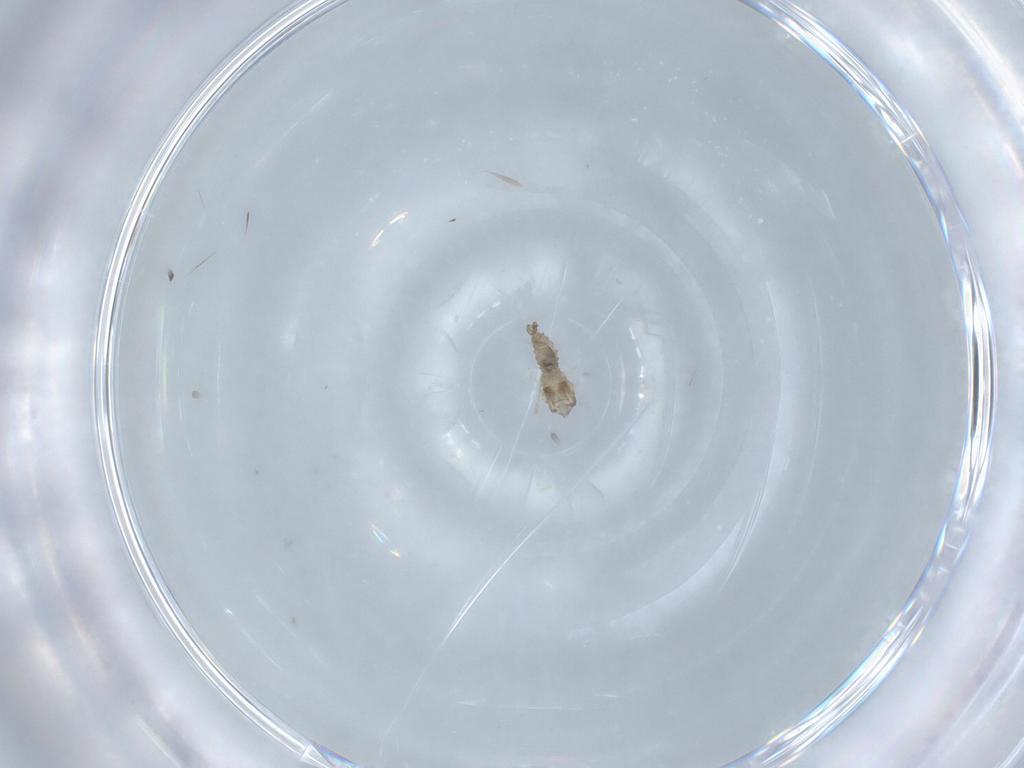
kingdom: Animalia
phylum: Arthropoda
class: Insecta
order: Diptera
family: Cecidomyiidae
